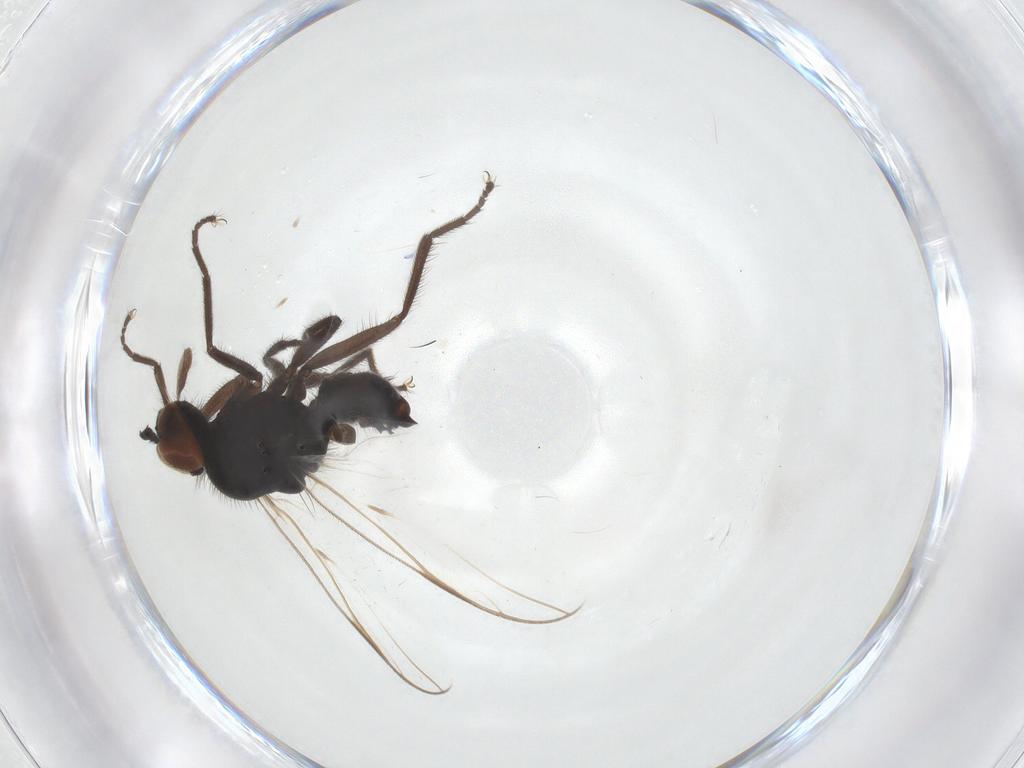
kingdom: Animalia
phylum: Arthropoda
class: Insecta
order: Diptera
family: Empididae
